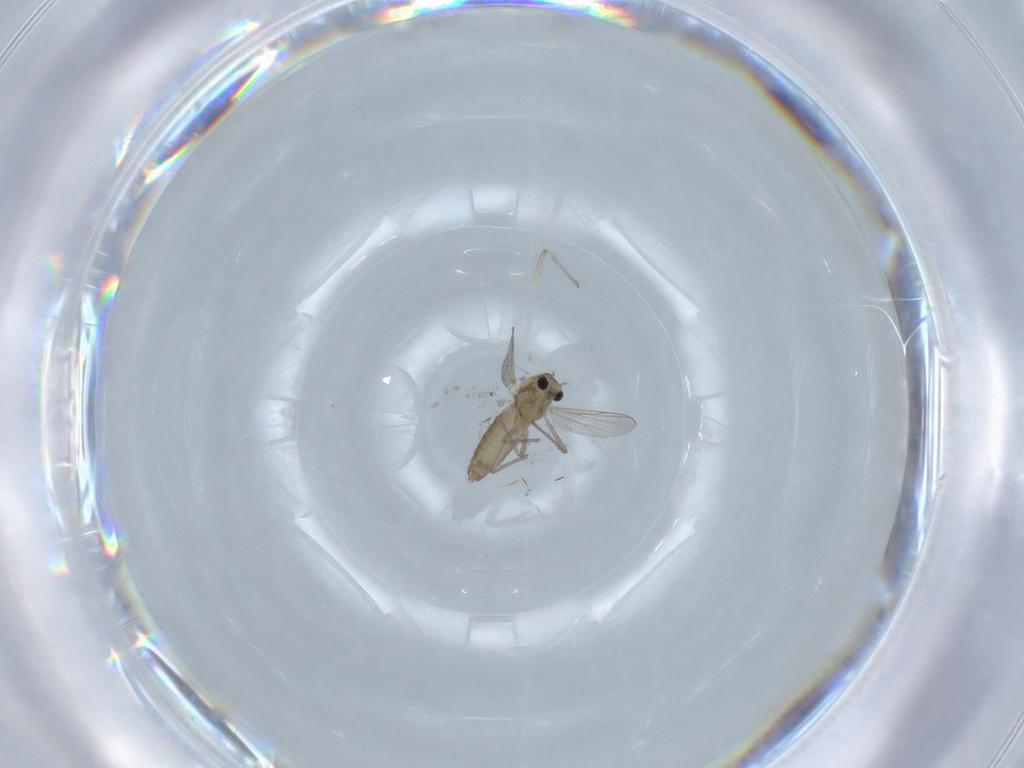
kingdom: Animalia
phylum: Arthropoda
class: Insecta
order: Diptera
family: Chironomidae
